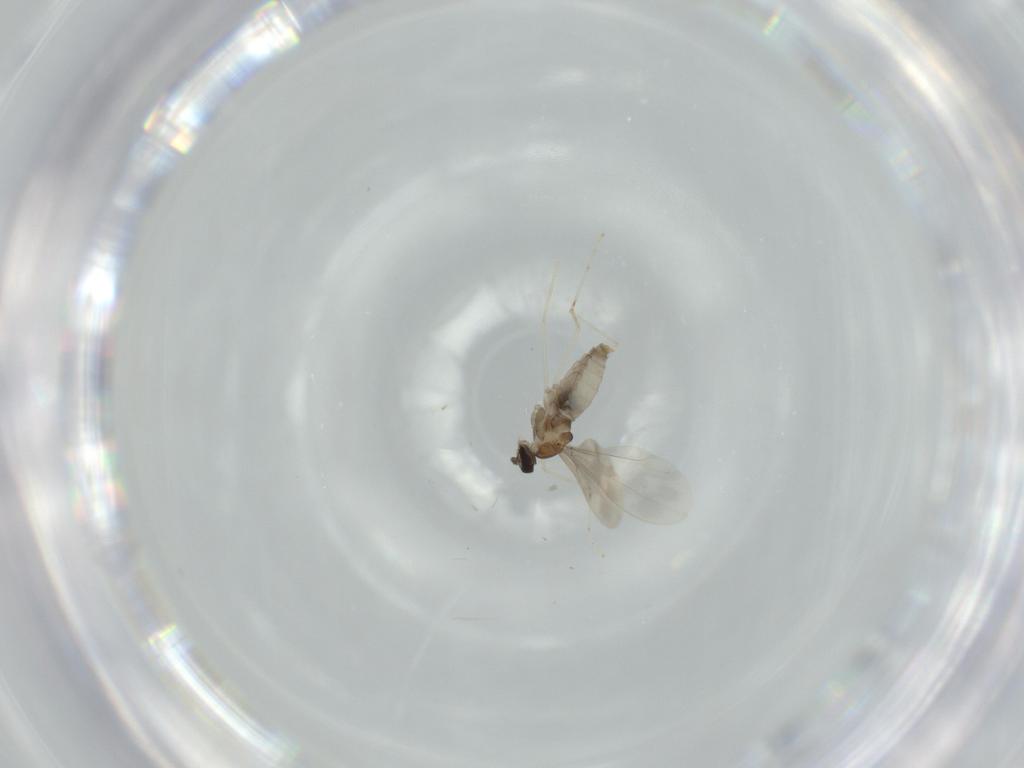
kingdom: Animalia
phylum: Arthropoda
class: Insecta
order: Diptera
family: Cecidomyiidae
